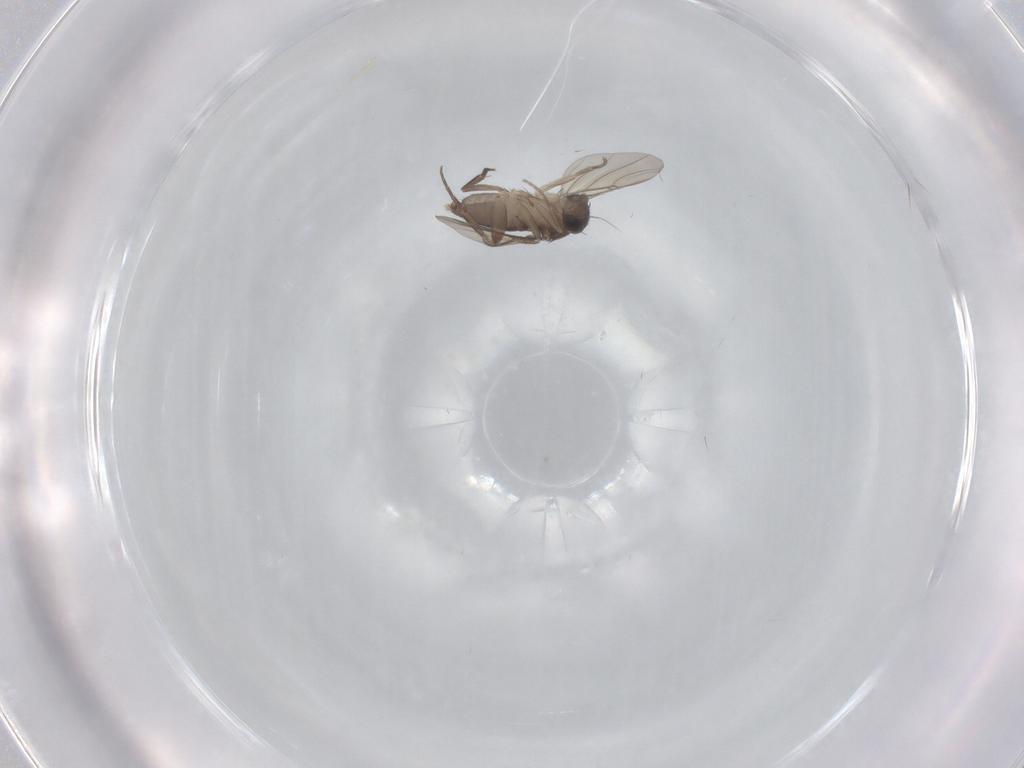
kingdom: Animalia
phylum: Arthropoda
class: Insecta
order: Diptera
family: Phoridae
